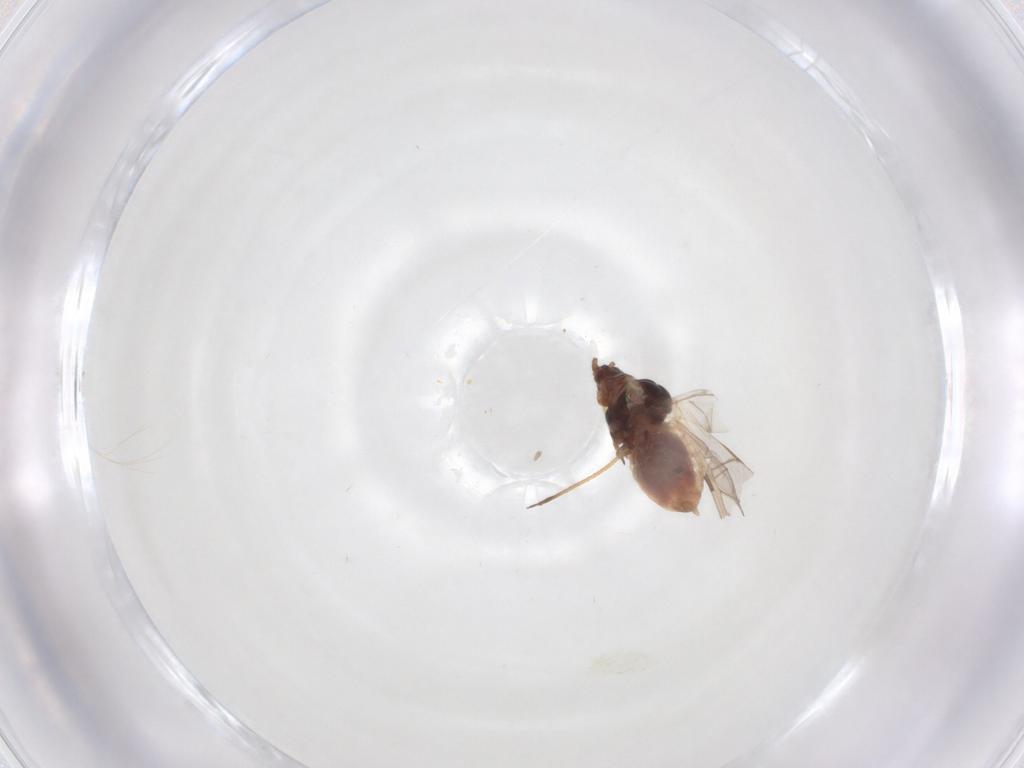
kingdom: Animalia
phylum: Arthropoda
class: Insecta
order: Hemiptera
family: Aphididae
